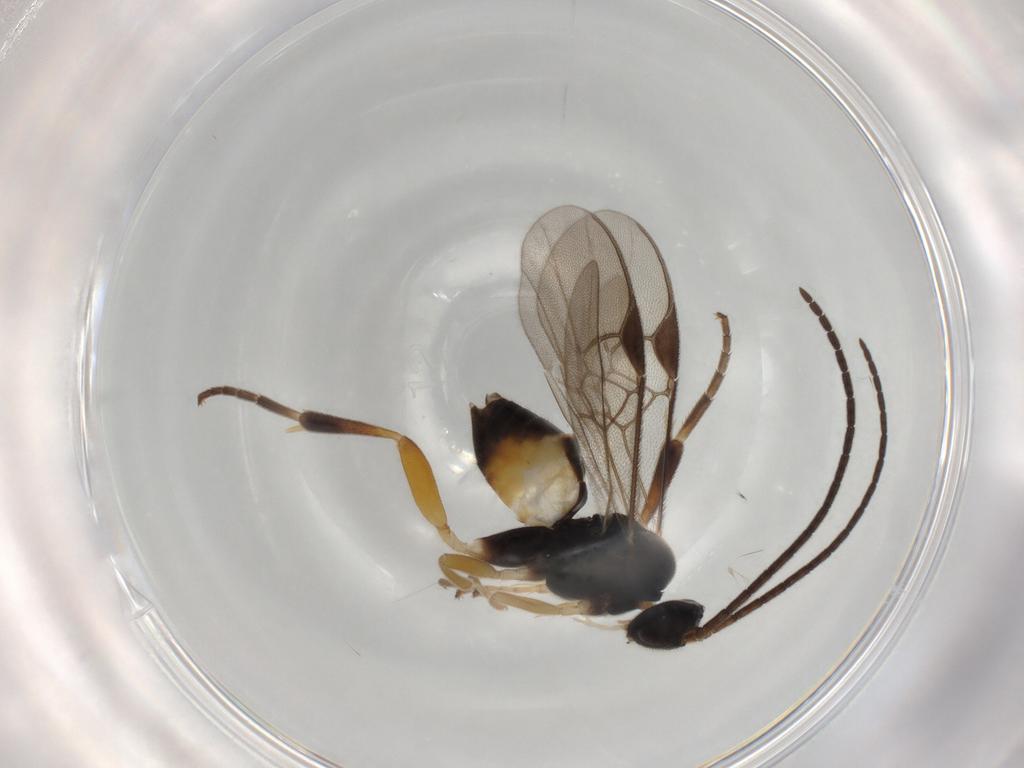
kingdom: Animalia
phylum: Arthropoda
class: Insecta
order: Hymenoptera
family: Braconidae
